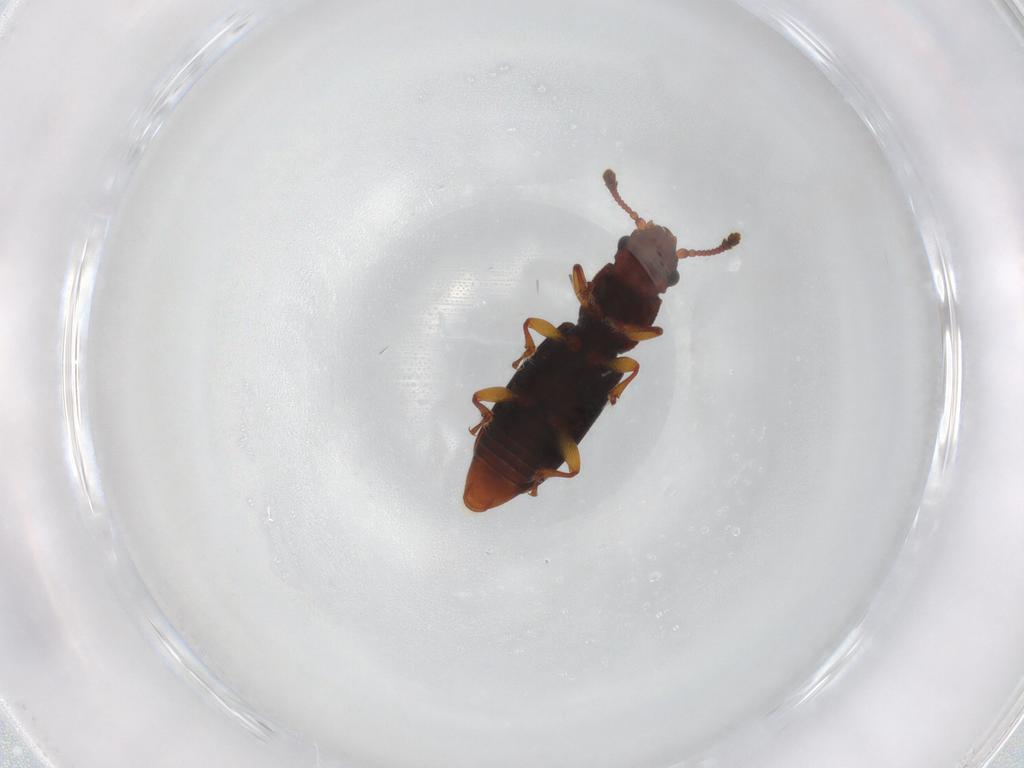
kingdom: Animalia
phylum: Arthropoda
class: Insecta
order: Coleoptera
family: Monotomidae
